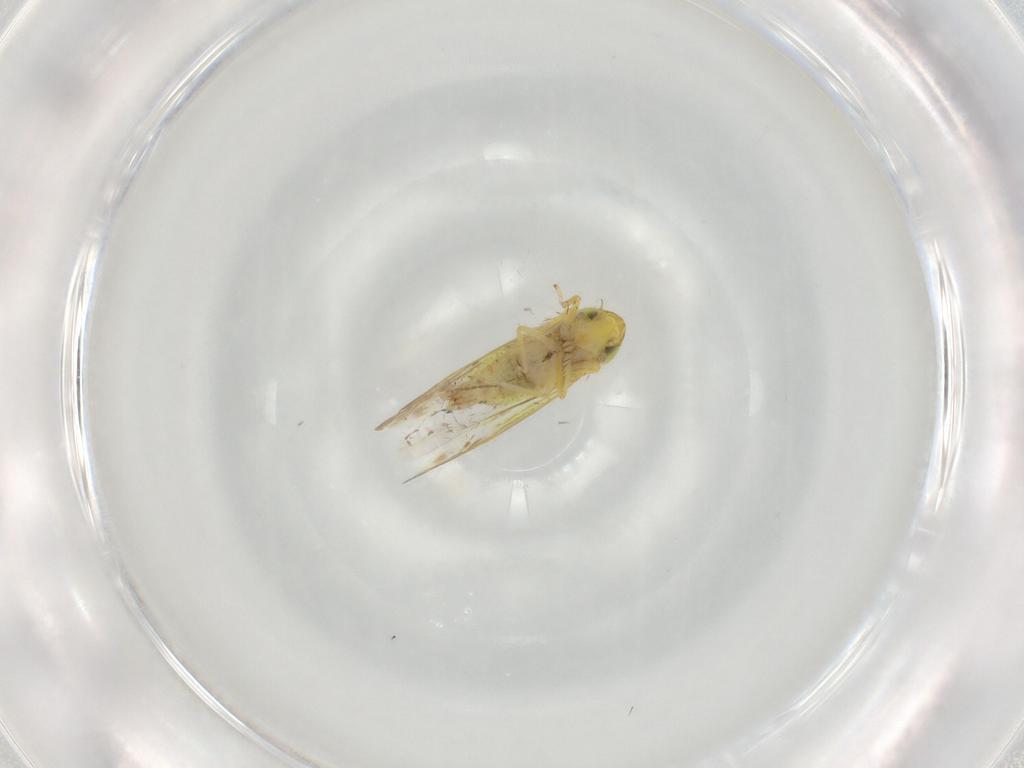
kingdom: Animalia
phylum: Arthropoda
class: Insecta
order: Hemiptera
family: Cicadellidae
